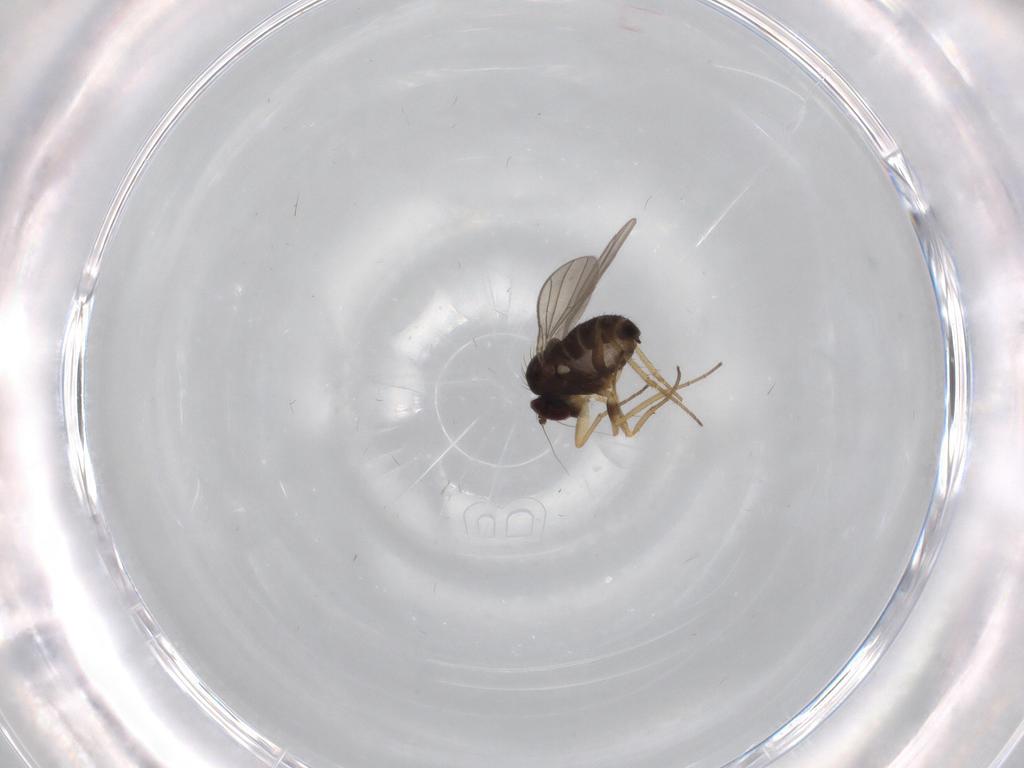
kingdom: Animalia
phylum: Arthropoda
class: Insecta
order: Diptera
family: Dolichopodidae
